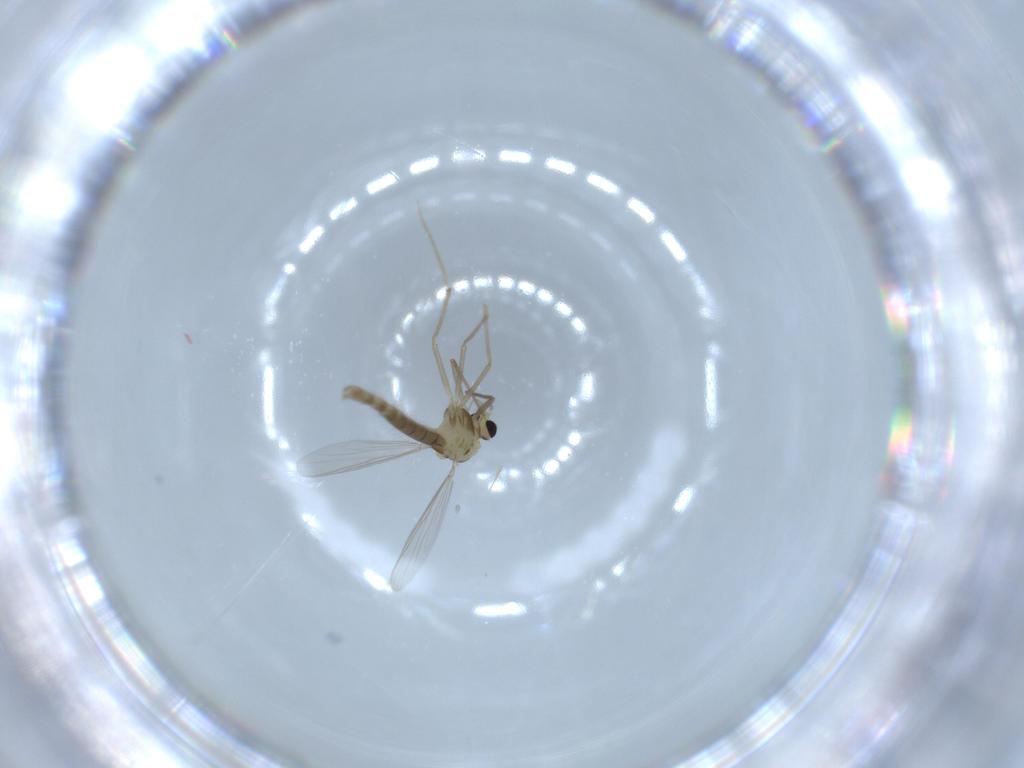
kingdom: Animalia
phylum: Arthropoda
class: Insecta
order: Diptera
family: Chironomidae
